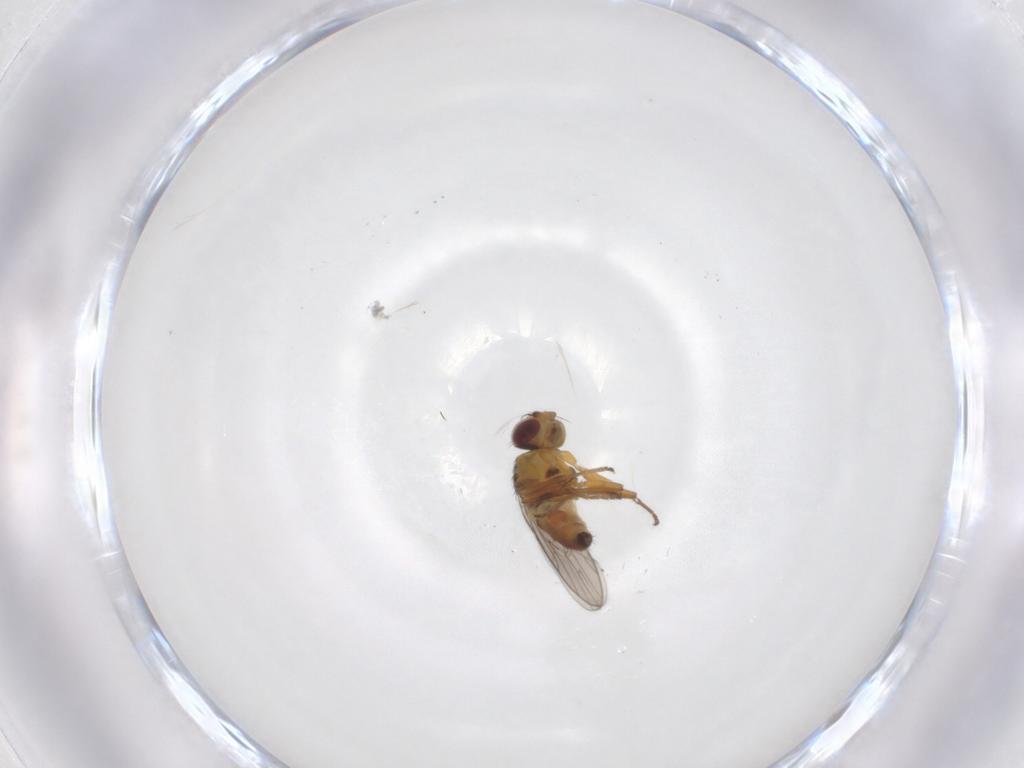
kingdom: Animalia
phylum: Arthropoda
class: Insecta
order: Diptera
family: Chloropidae
